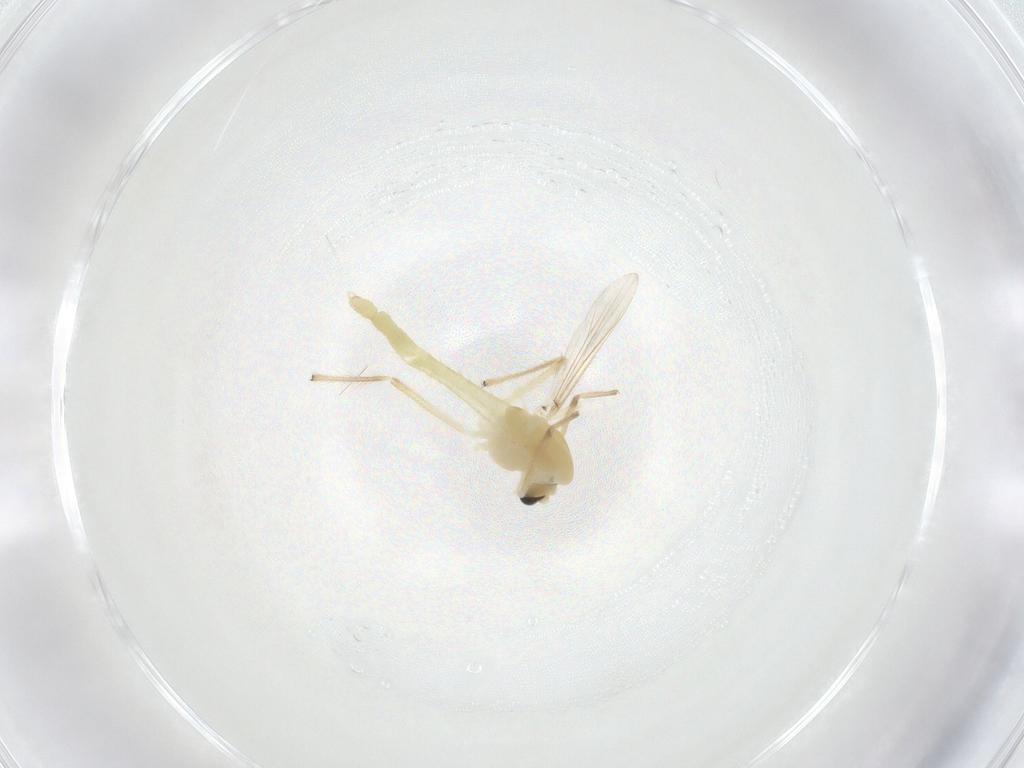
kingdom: Animalia
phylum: Arthropoda
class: Insecta
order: Diptera
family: Chironomidae
